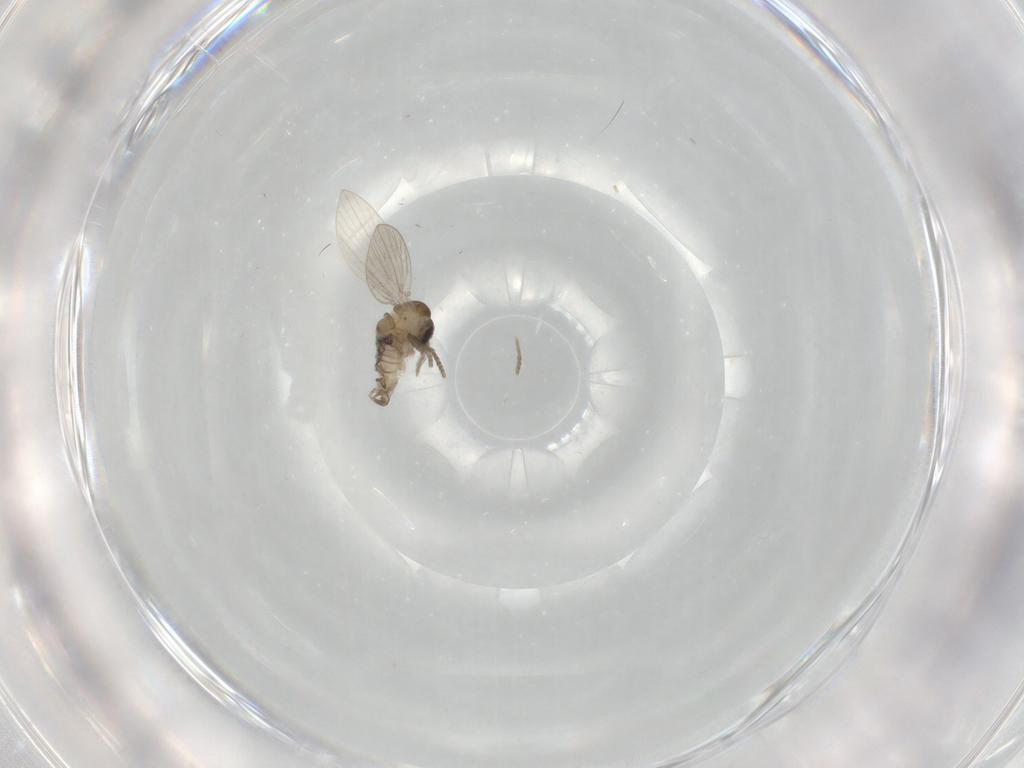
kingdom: Animalia
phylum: Arthropoda
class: Insecta
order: Diptera
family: Psychodidae
